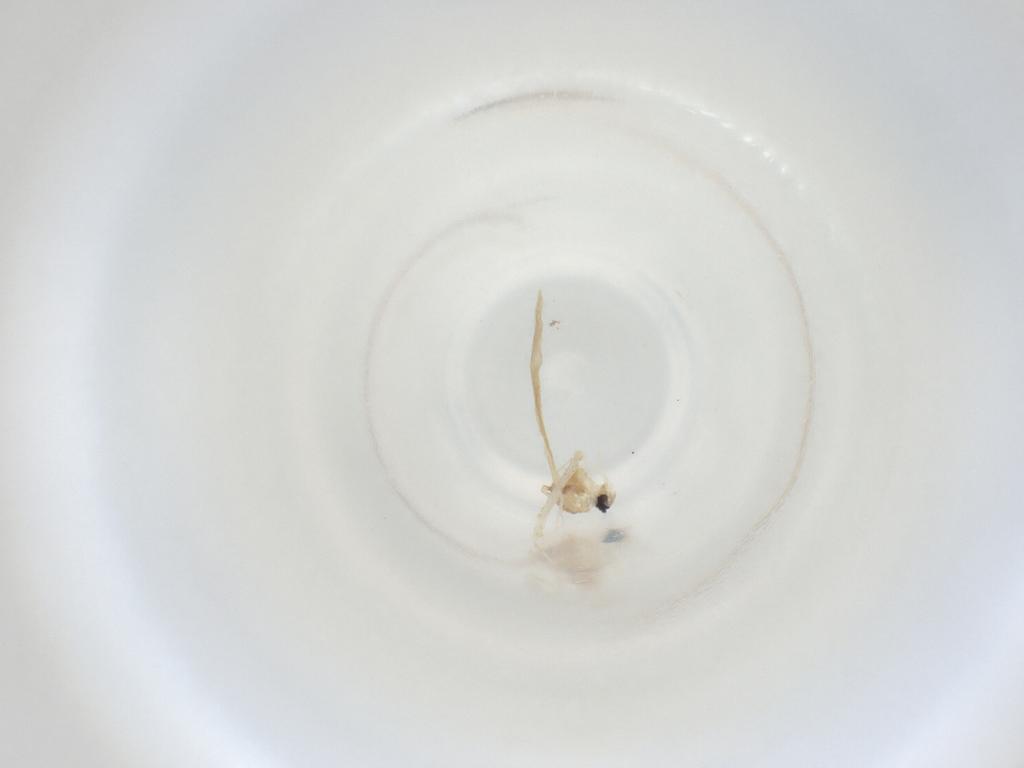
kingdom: Animalia
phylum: Arthropoda
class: Insecta
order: Diptera
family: Cecidomyiidae
